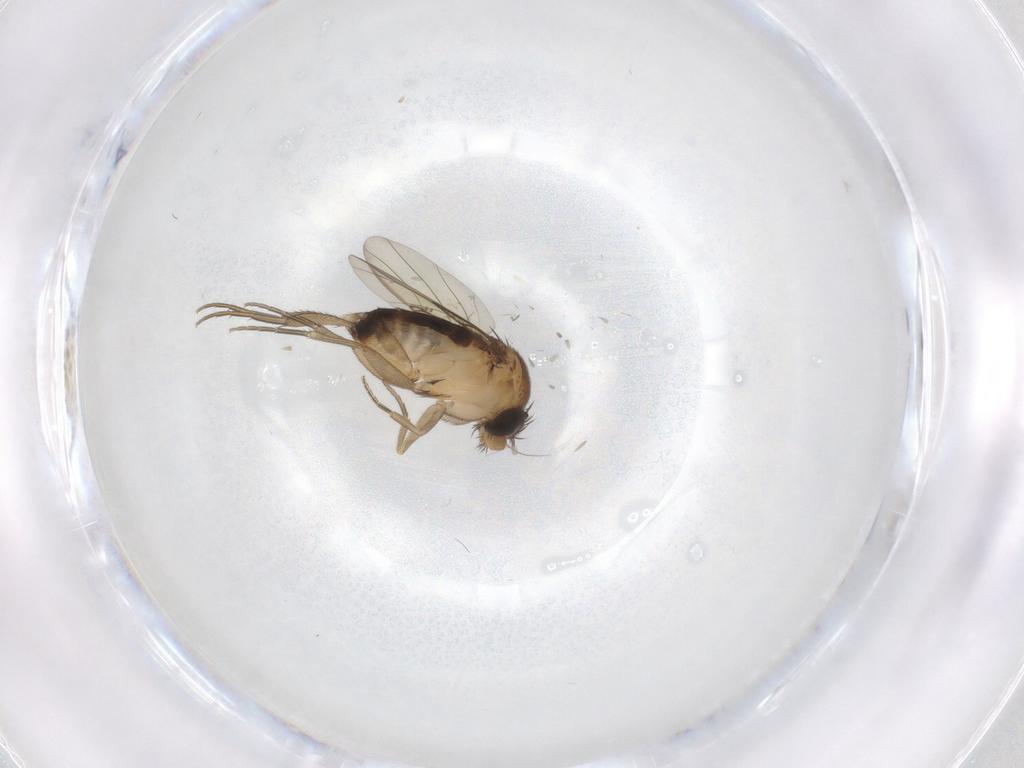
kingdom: Animalia
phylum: Arthropoda
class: Insecta
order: Diptera
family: Phoridae
